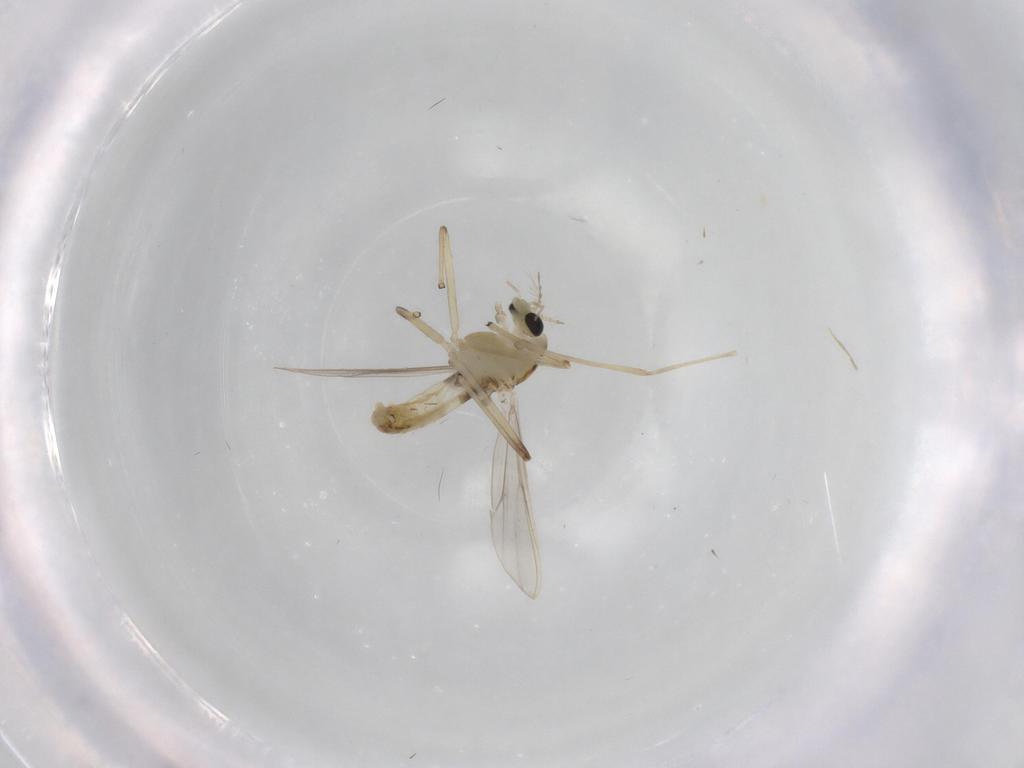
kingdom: Animalia
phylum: Arthropoda
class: Insecta
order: Diptera
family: Chironomidae
